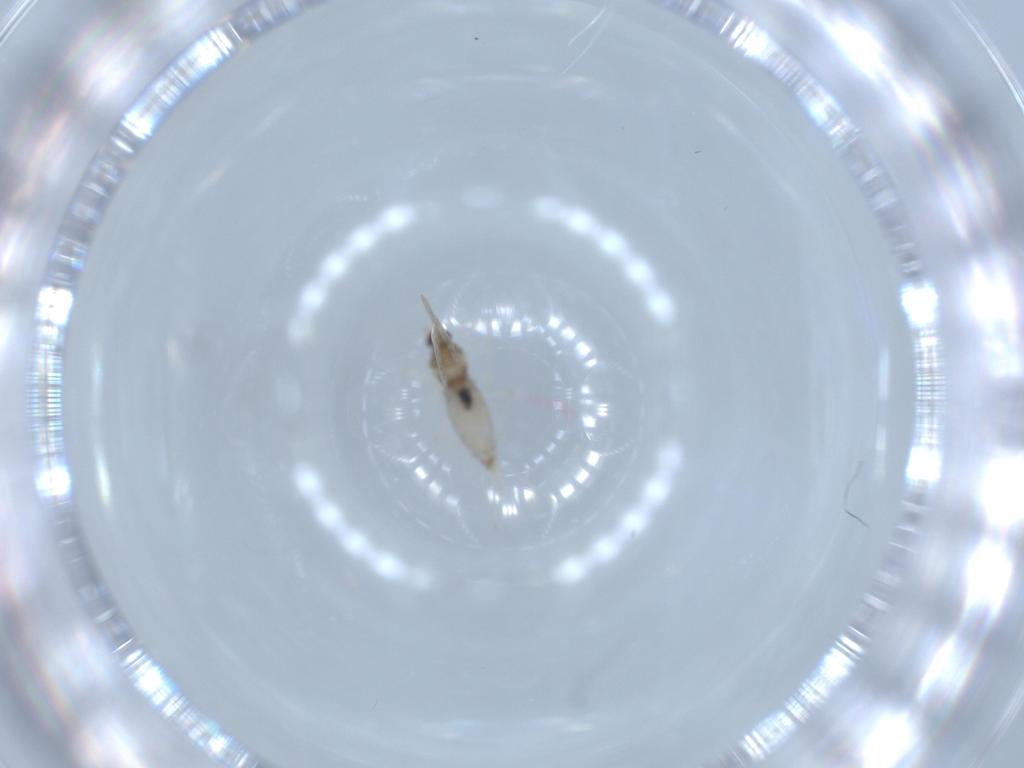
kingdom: Animalia
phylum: Arthropoda
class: Insecta
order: Diptera
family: Cecidomyiidae
